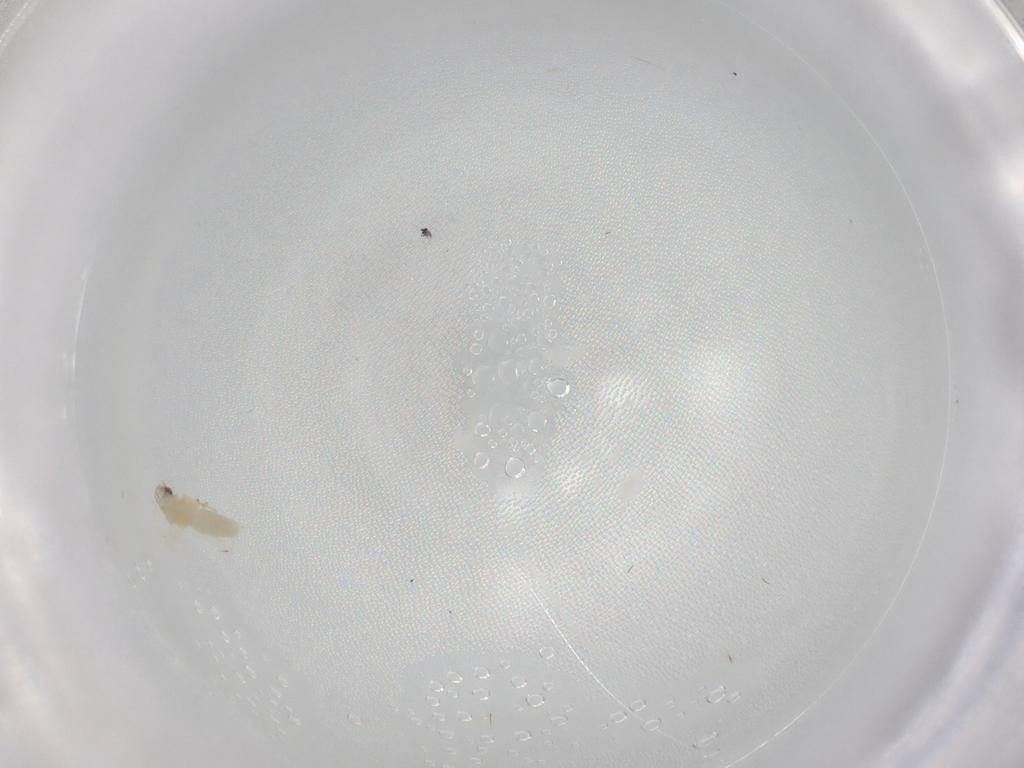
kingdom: Animalia
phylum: Arthropoda
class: Insecta
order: Hemiptera
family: Aleyrodidae
